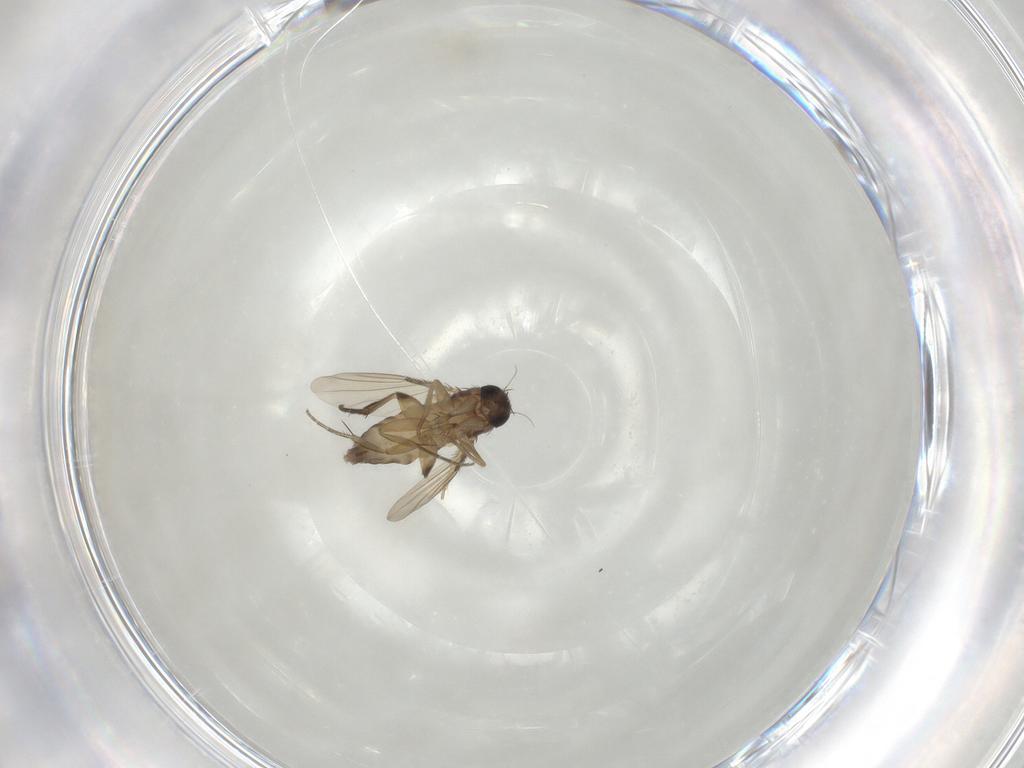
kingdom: Animalia
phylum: Arthropoda
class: Insecta
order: Diptera
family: Phoridae
